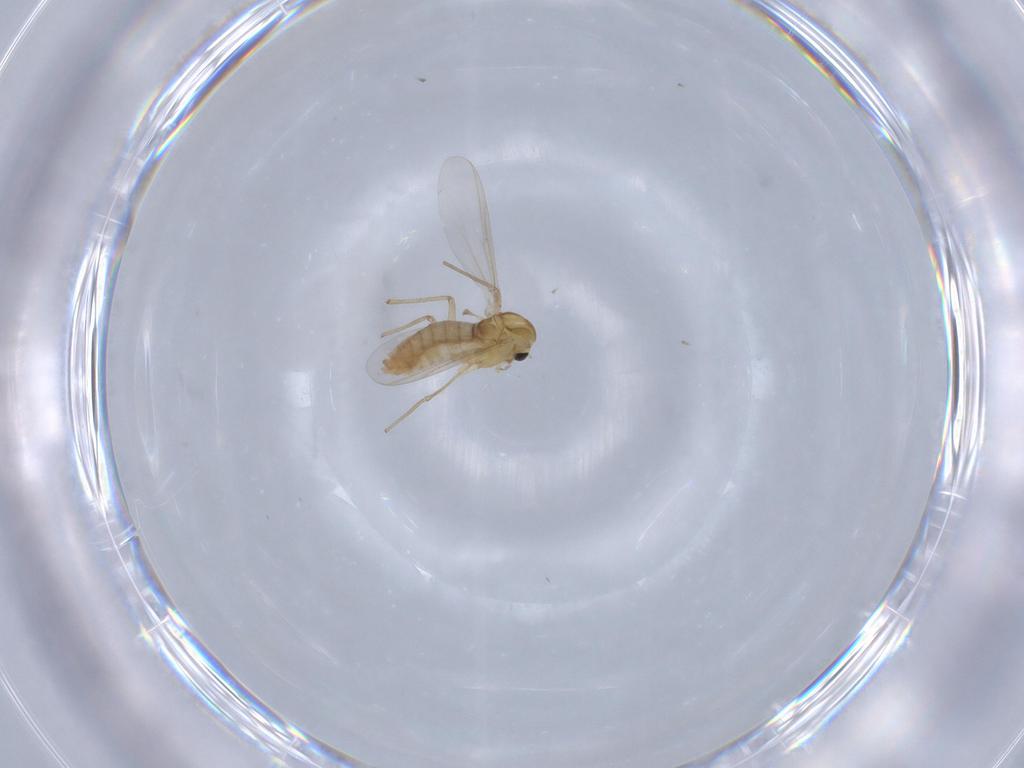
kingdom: Animalia
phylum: Arthropoda
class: Insecta
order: Diptera
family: Chironomidae
